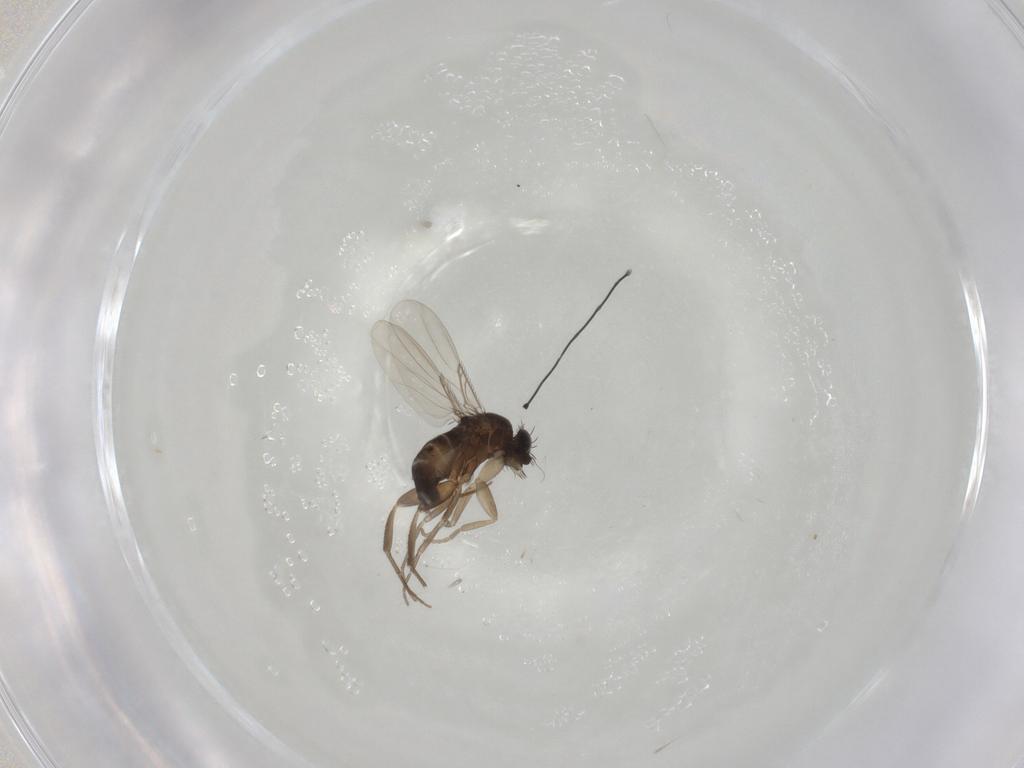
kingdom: Animalia
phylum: Arthropoda
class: Insecta
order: Diptera
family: Phoridae
